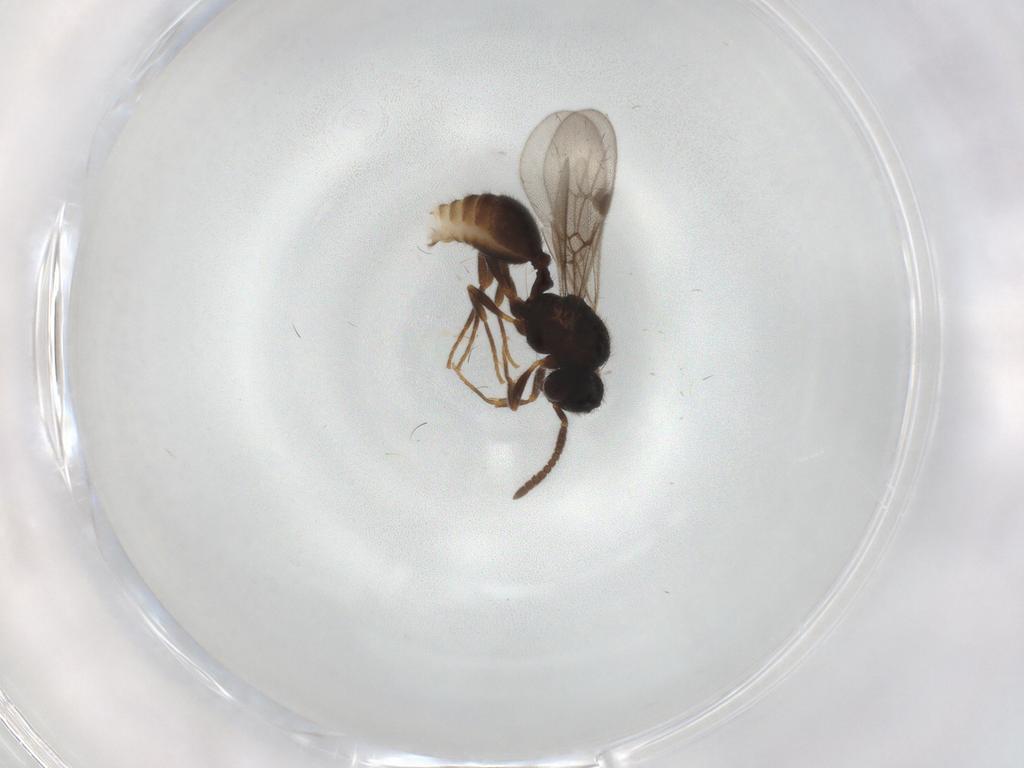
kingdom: Animalia
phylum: Arthropoda
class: Insecta
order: Hymenoptera
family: Formicidae
